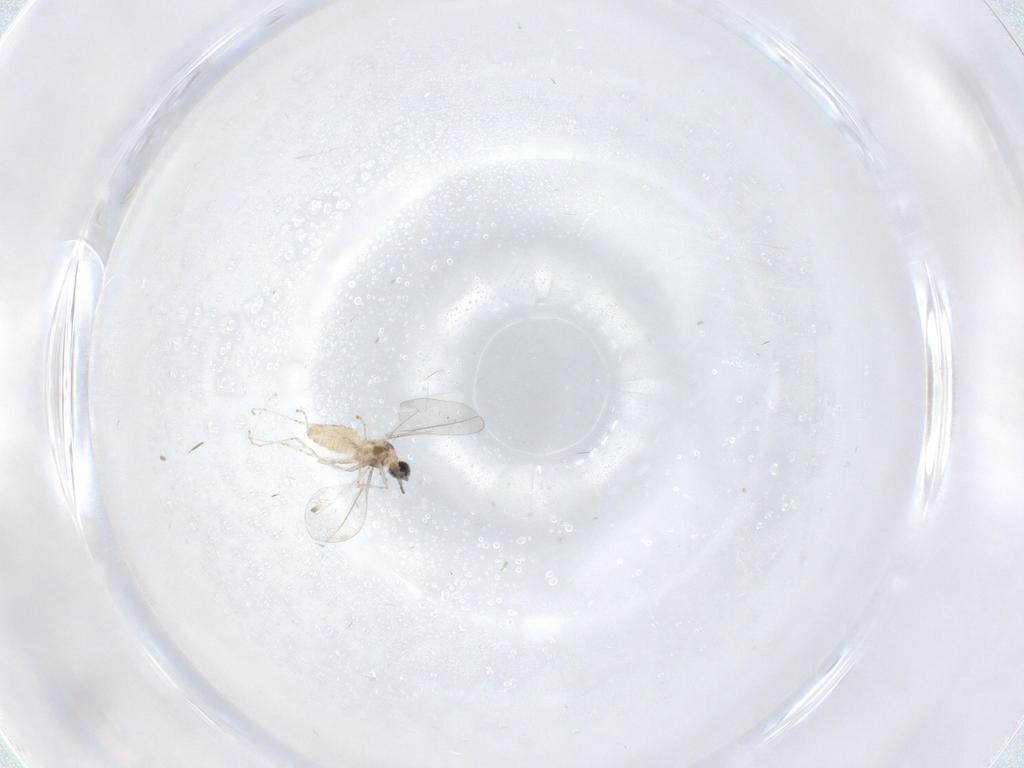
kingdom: Animalia
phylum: Arthropoda
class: Insecta
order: Diptera
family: Cecidomyiidae
